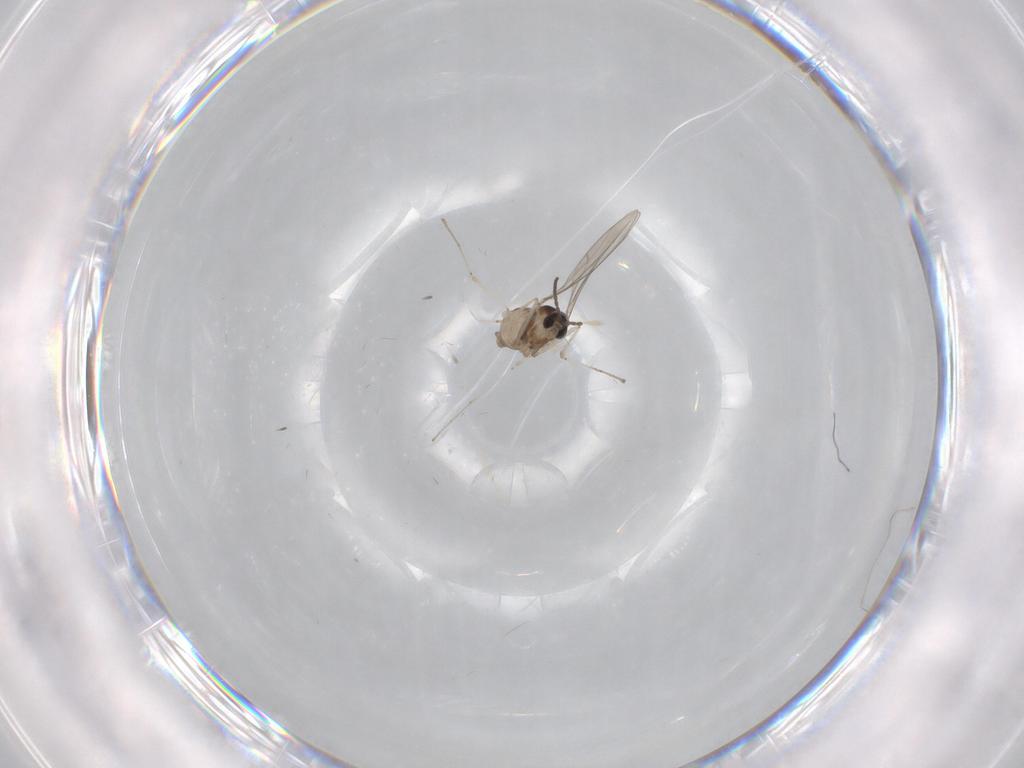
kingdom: Animalia
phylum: Arthropoda
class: Insecta
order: Diptera
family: Cecidomyiidae
